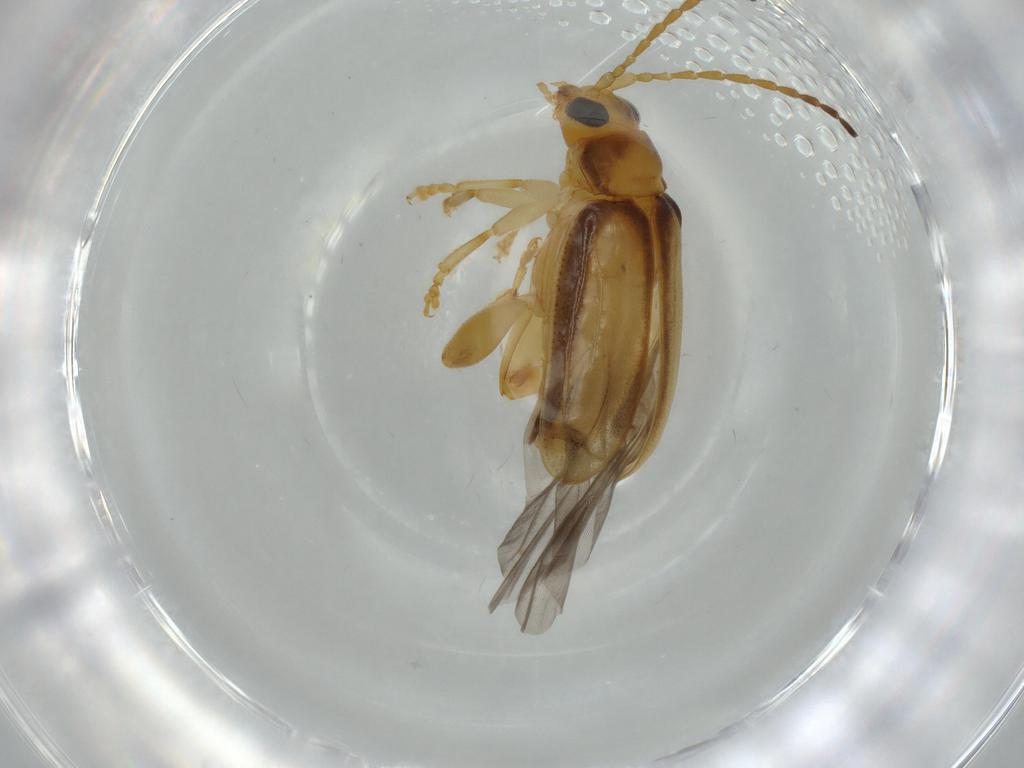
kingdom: Animalia
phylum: Arthropoda
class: Insecta
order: Coleoptera
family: Chrysomelidae
